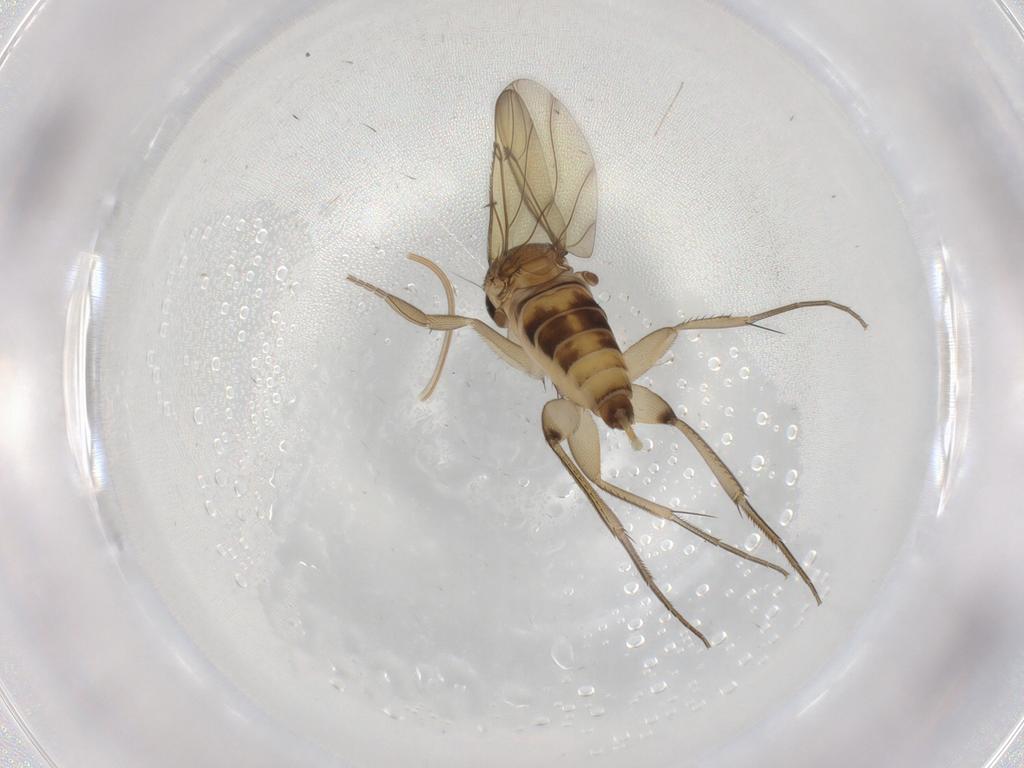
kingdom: Animalia
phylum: Arthropoda
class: Insecta
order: Diptera
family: Phoridae
